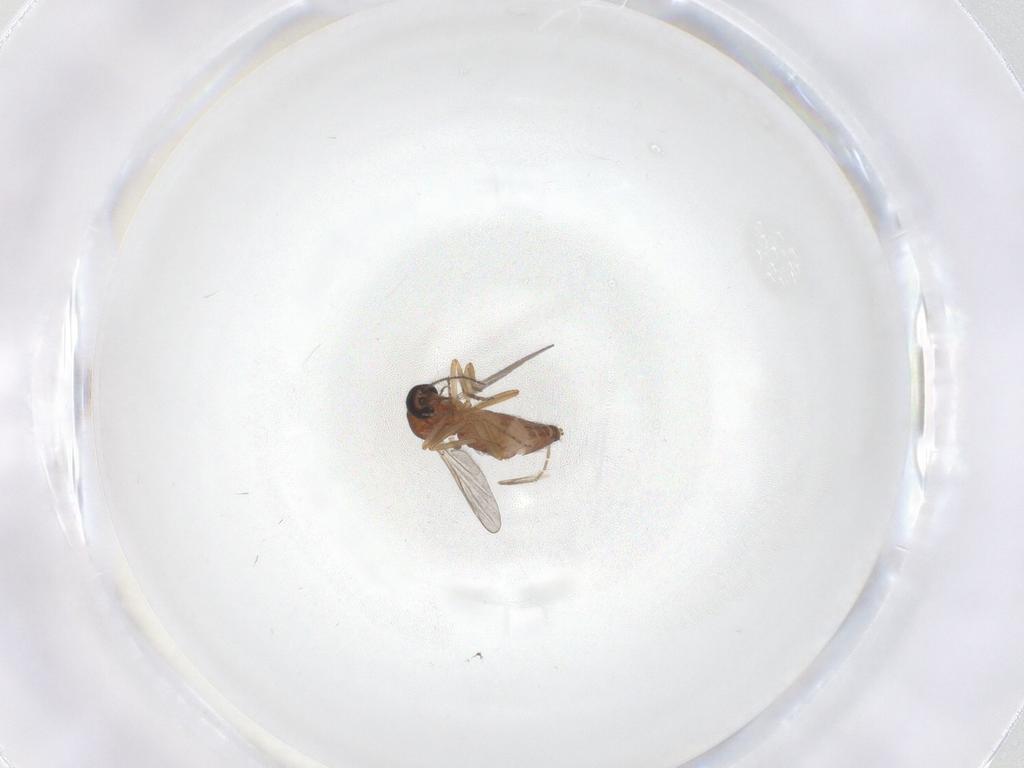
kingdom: Animalia
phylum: Arthropoda
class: Insecta
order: Diptera
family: Ceratopogonidae
